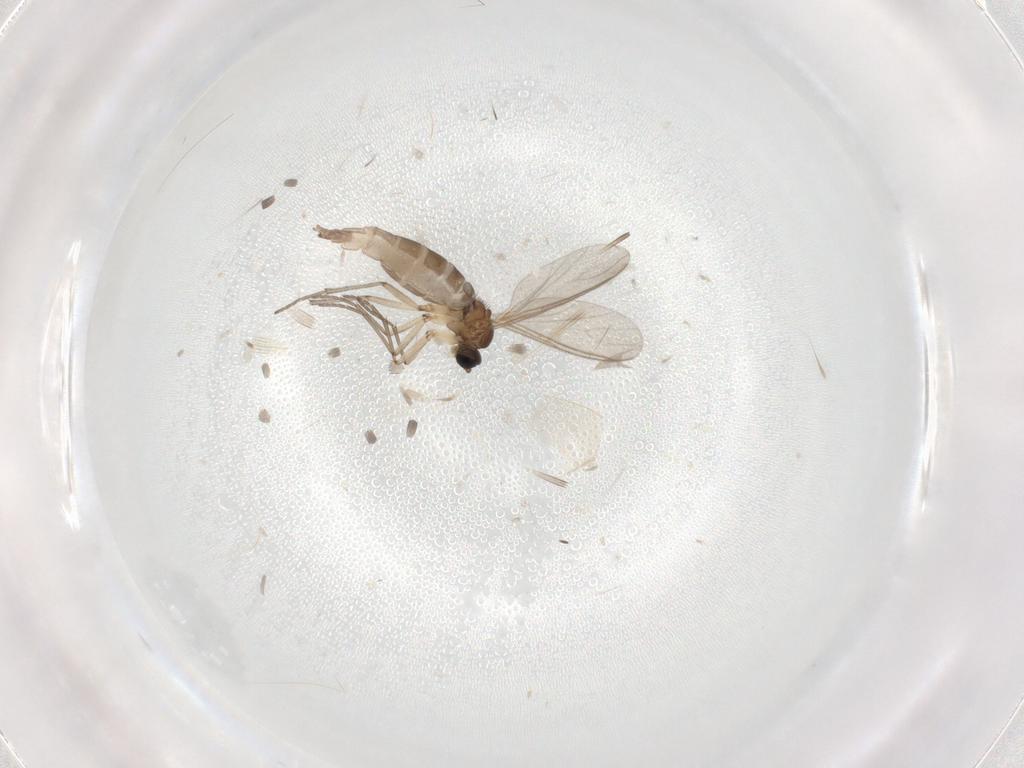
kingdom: Animalia
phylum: Arthropoda
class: Insecta
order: Diptera
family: Sciaridae
